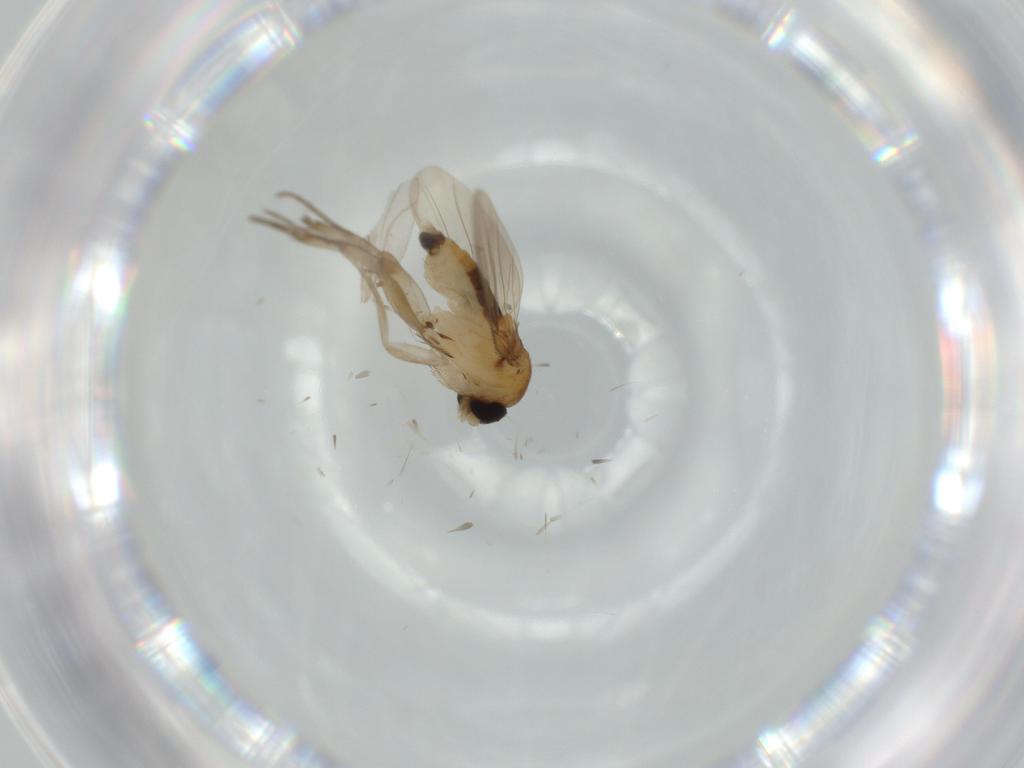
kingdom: Animalia
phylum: Arthropoda
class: Insecta
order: Diptera
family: Phoridae
